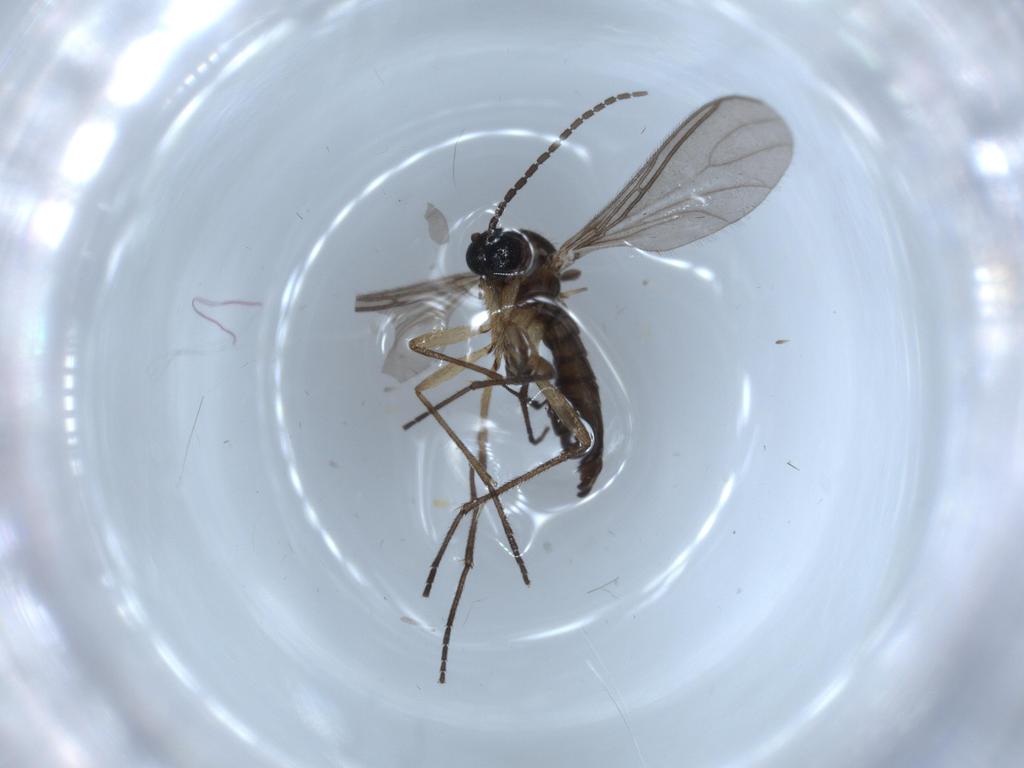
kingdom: Animalia
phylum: Arthropoda
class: Insecta
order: Diptera
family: Sciaridae
